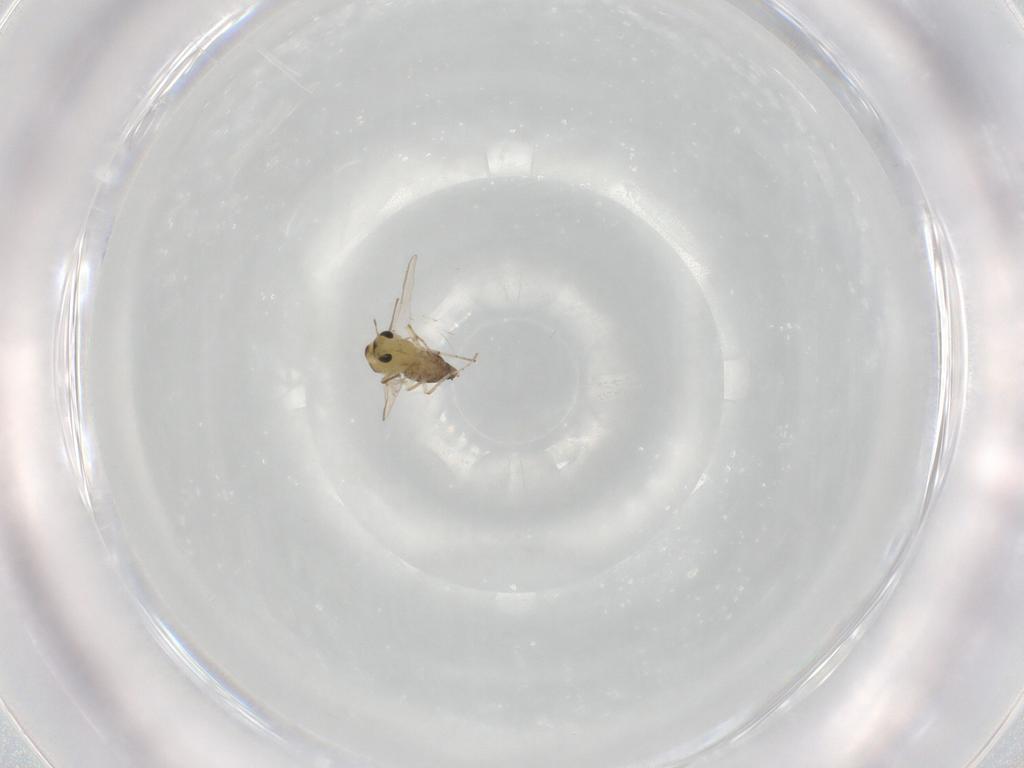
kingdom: Animalia
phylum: Arthropoda
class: Insecta
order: Diptera
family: Chironomidae
